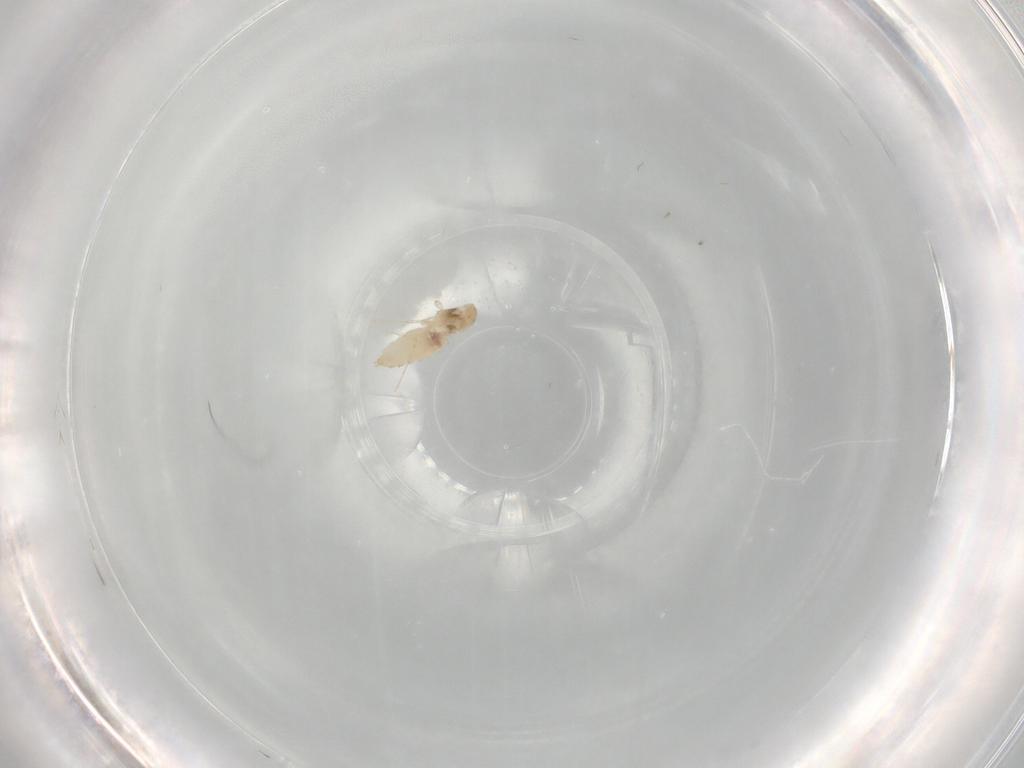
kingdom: Animalia
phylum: Arthropoda
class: Insecta
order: Diptera
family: Cecidomyiidae
